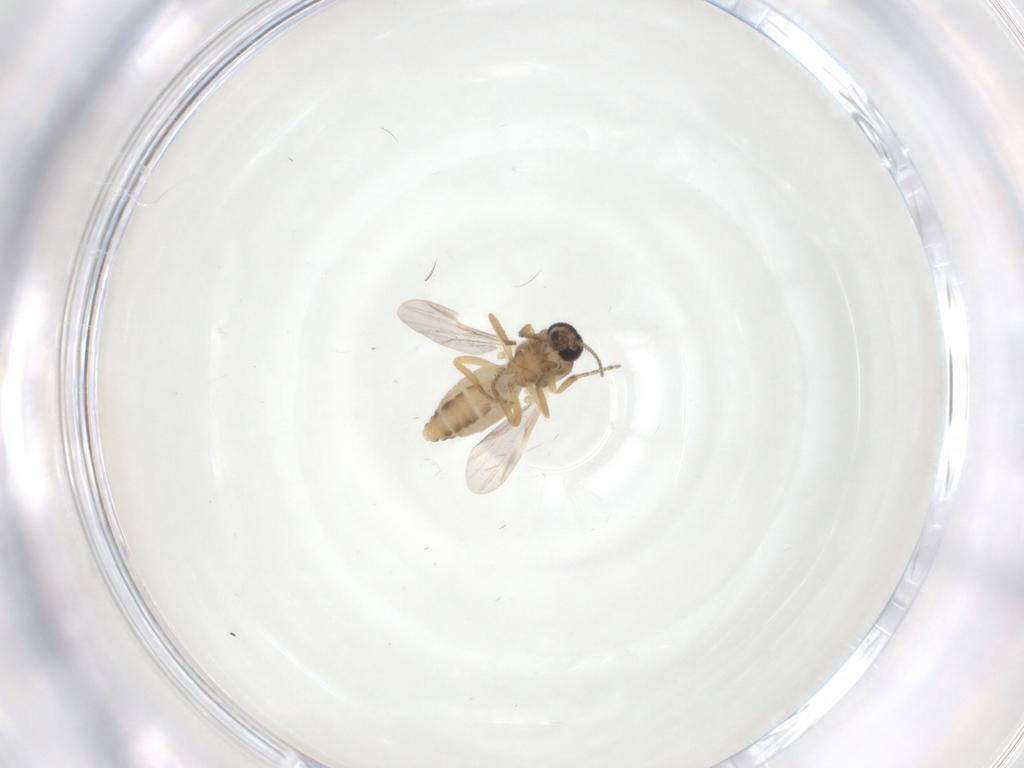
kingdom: Animalia
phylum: Arthropoda
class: Insecta
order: Diptera
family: Ceratopogonidae
